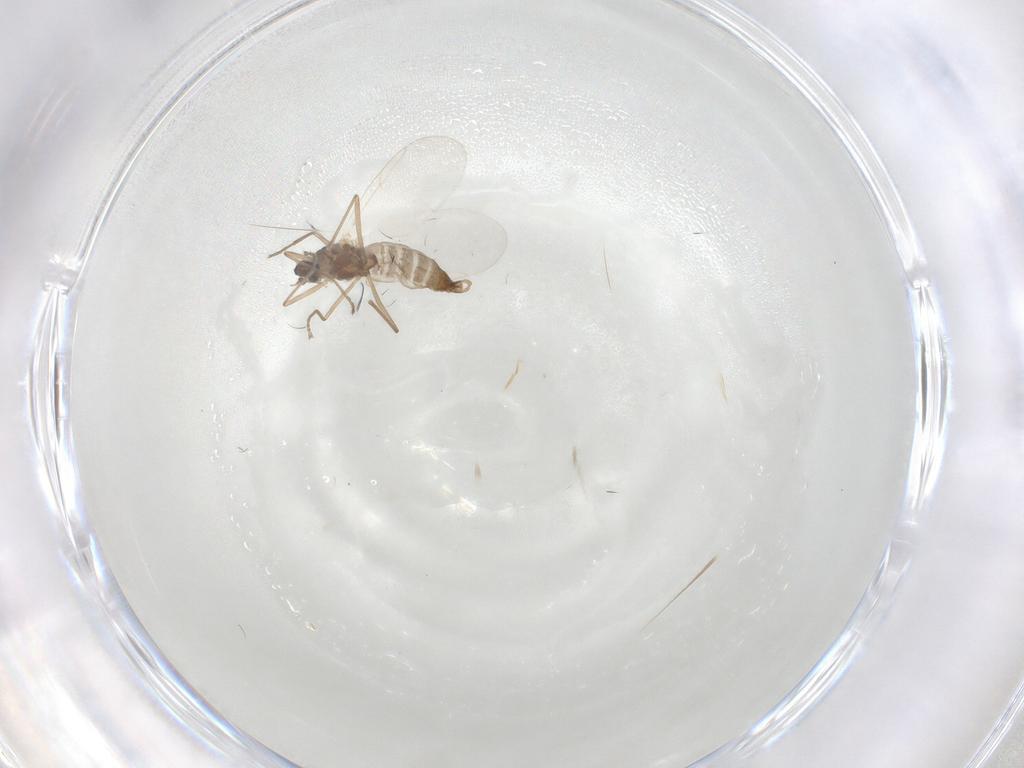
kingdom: Animalia
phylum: Arthropoda
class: Insecta
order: Diptera
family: Cecidomyiidae
